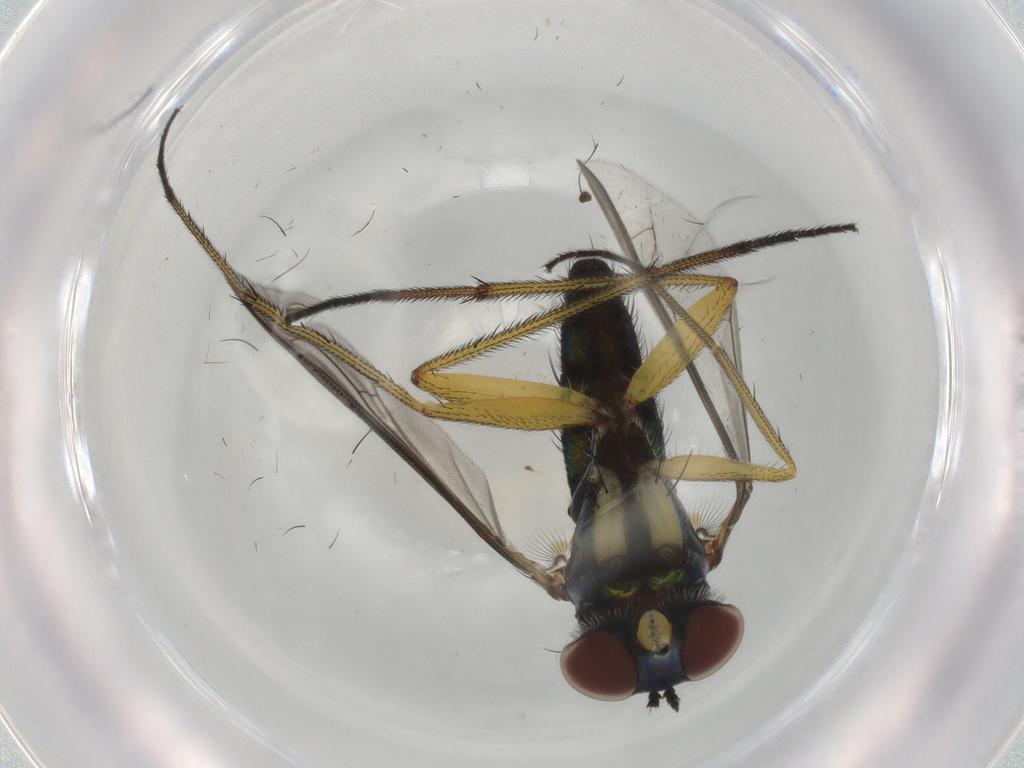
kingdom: Animalia
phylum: Arthropoda
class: Insecta
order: Diptera
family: Dolichopodidae
